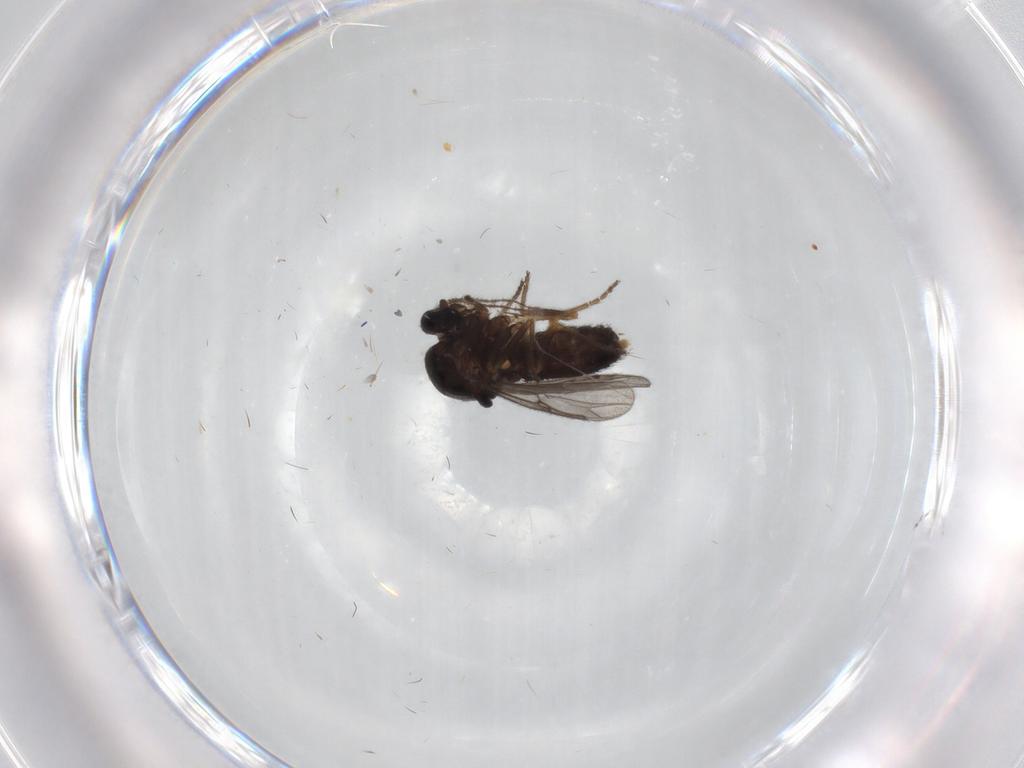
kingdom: Animalia
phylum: Arthropoda
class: Insecta
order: Diptera
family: Ceratopogonidae
